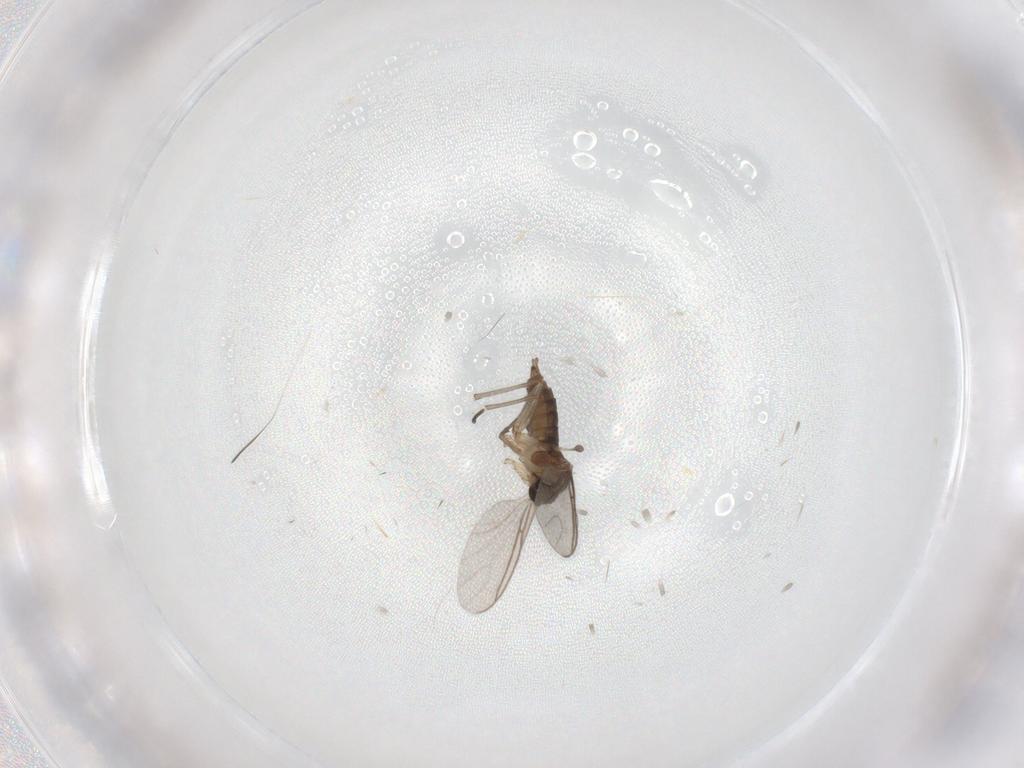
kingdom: Animalia
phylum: Arthropoda
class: Insecta
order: Diptera
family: Sciaridae
